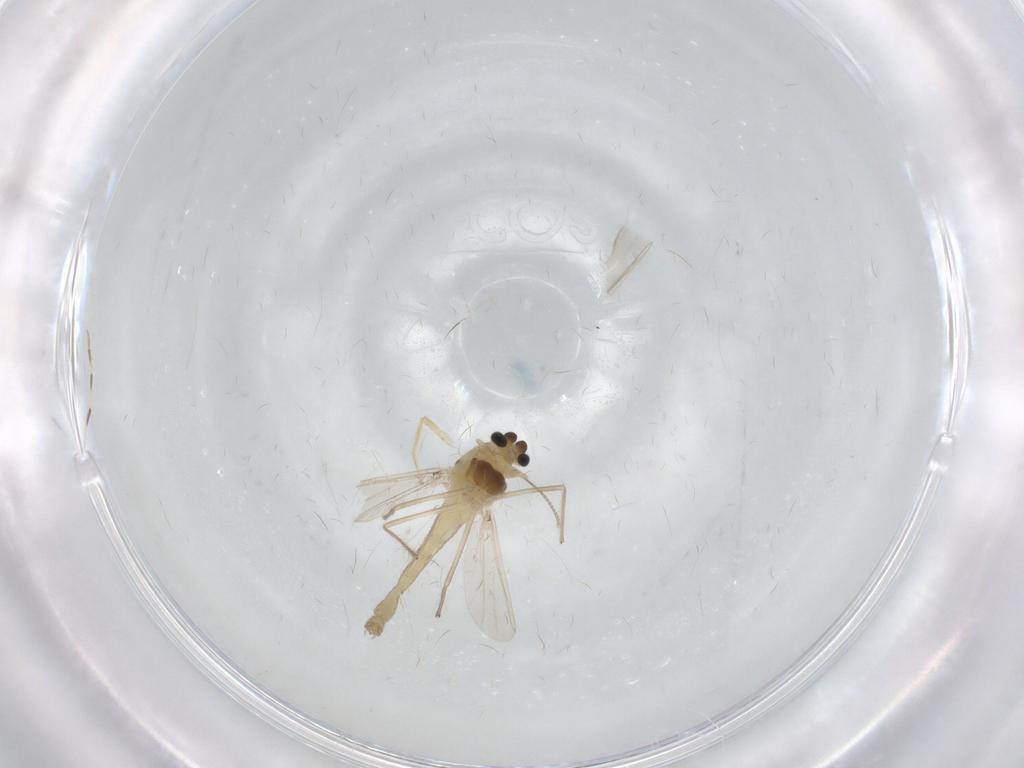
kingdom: Animalia
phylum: Arthropoda
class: Insecta
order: Diptera
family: Chironomidae
